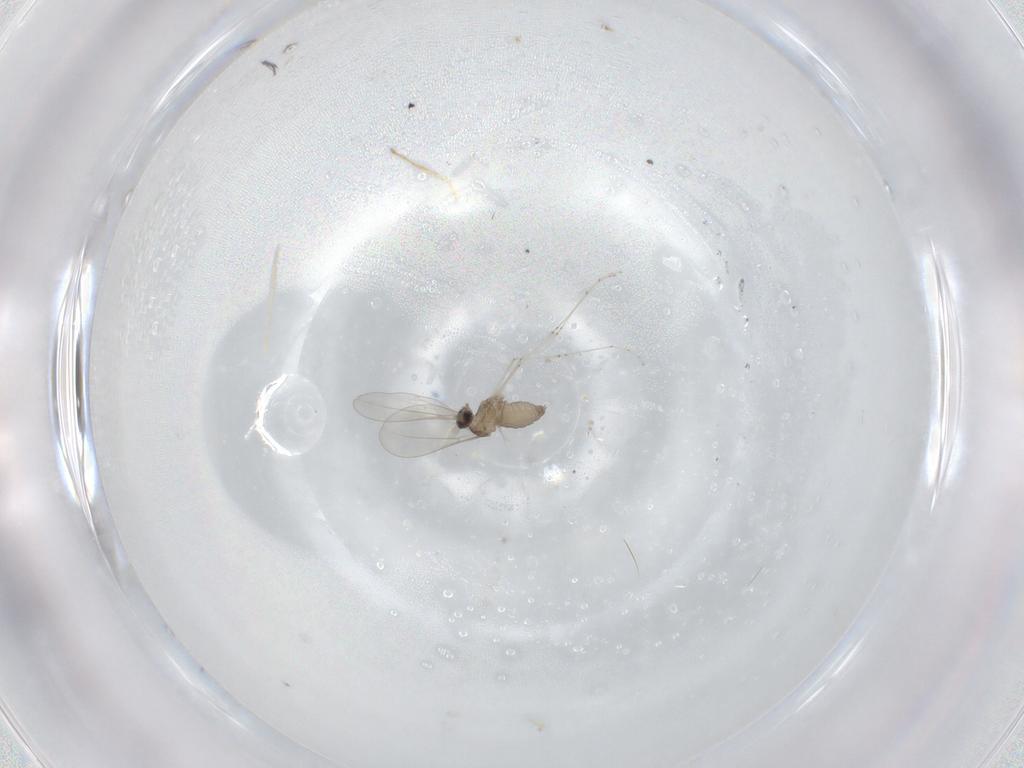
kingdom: Animalia
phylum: Arthropoda
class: Insecta
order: Diptera
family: Cecidomyiidae
